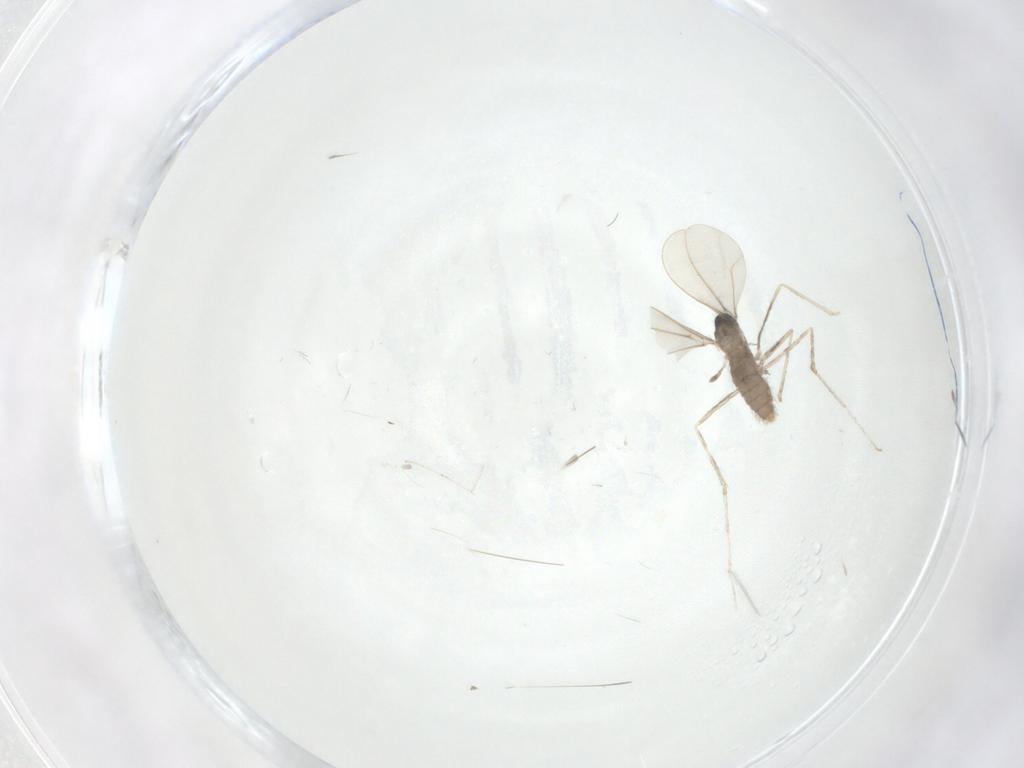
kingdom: Animalia
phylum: Arthropoda
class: Insecta
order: Diptera
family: Cecidomyiidae
